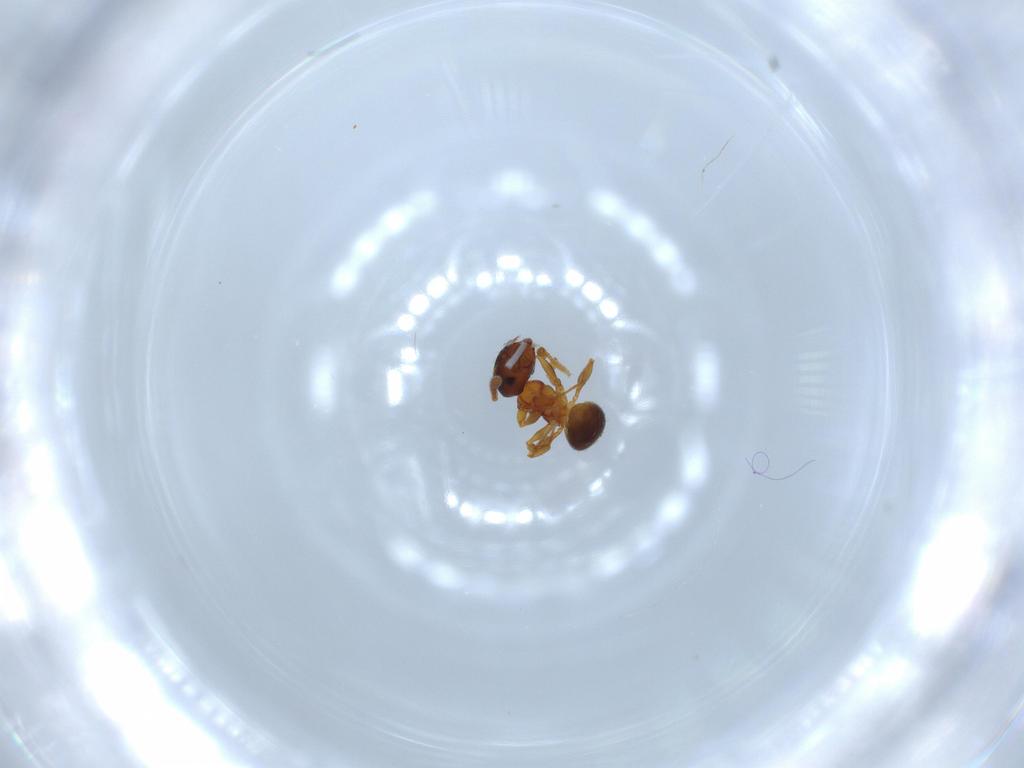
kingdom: Animalia
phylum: Arthropoda
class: Insecta
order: Hymenoptera
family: Formicidae
